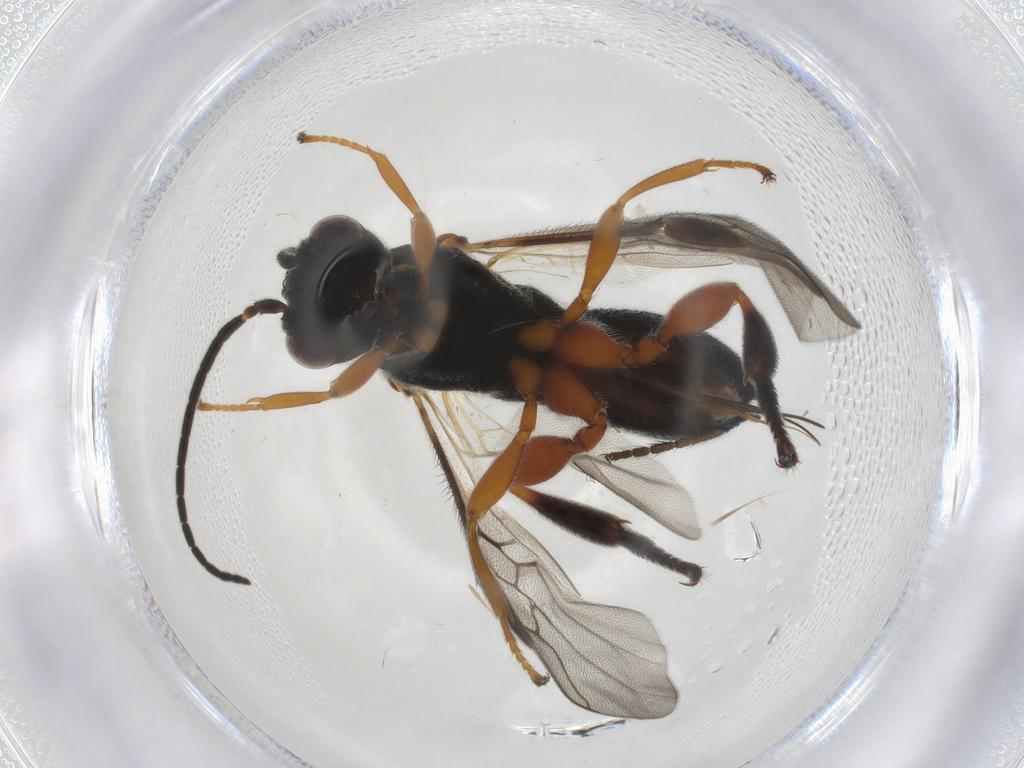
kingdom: Animalia
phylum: Arthropoda
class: Insecta
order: Hymenoptera
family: Braconidae
